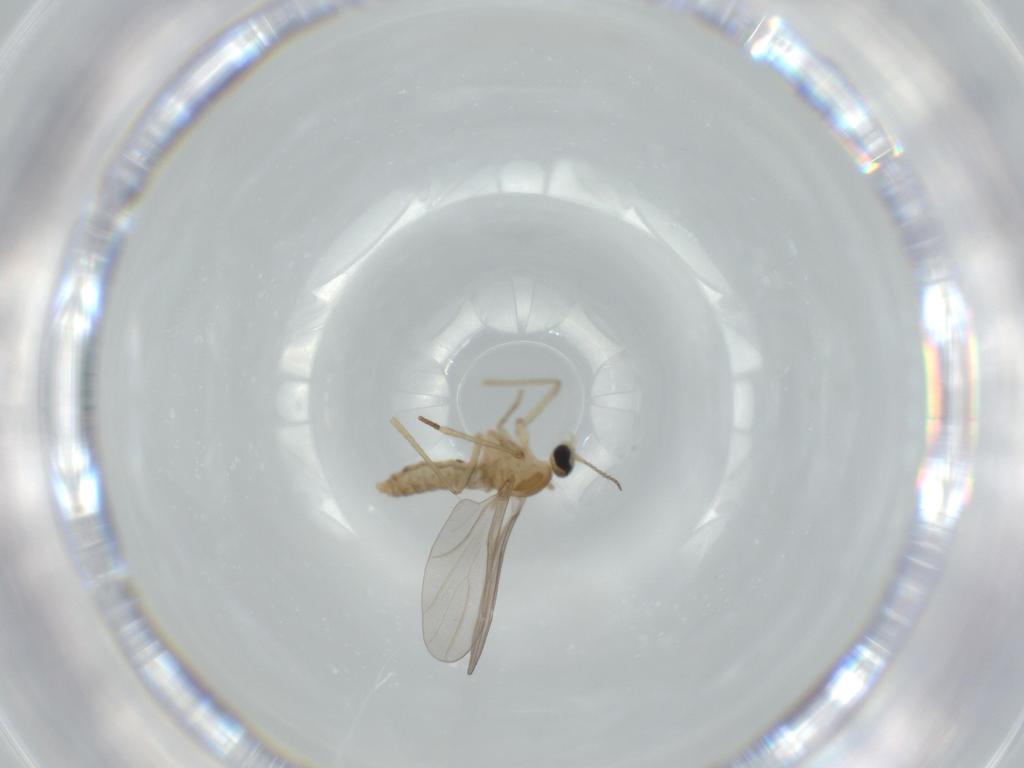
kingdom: Animalia
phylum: Arthropoda
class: Insecta
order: Diptera
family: Cecidomyiidae
